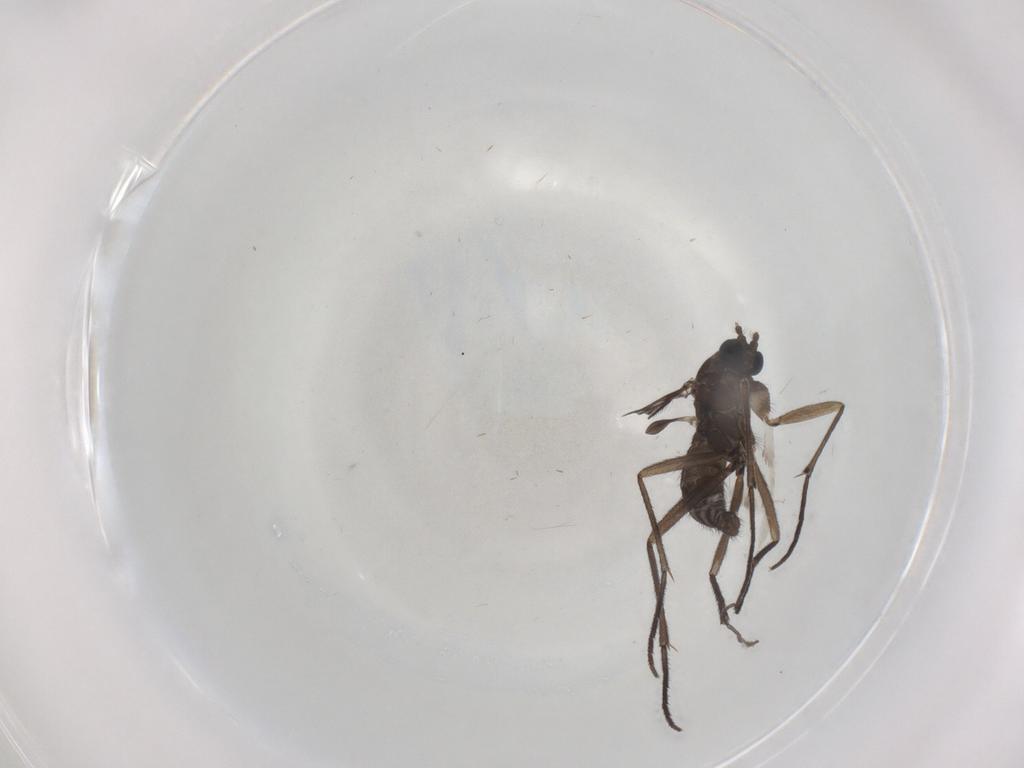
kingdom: Animalia
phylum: Arthropoda
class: Insecta
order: Diptera
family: Sciaridae
